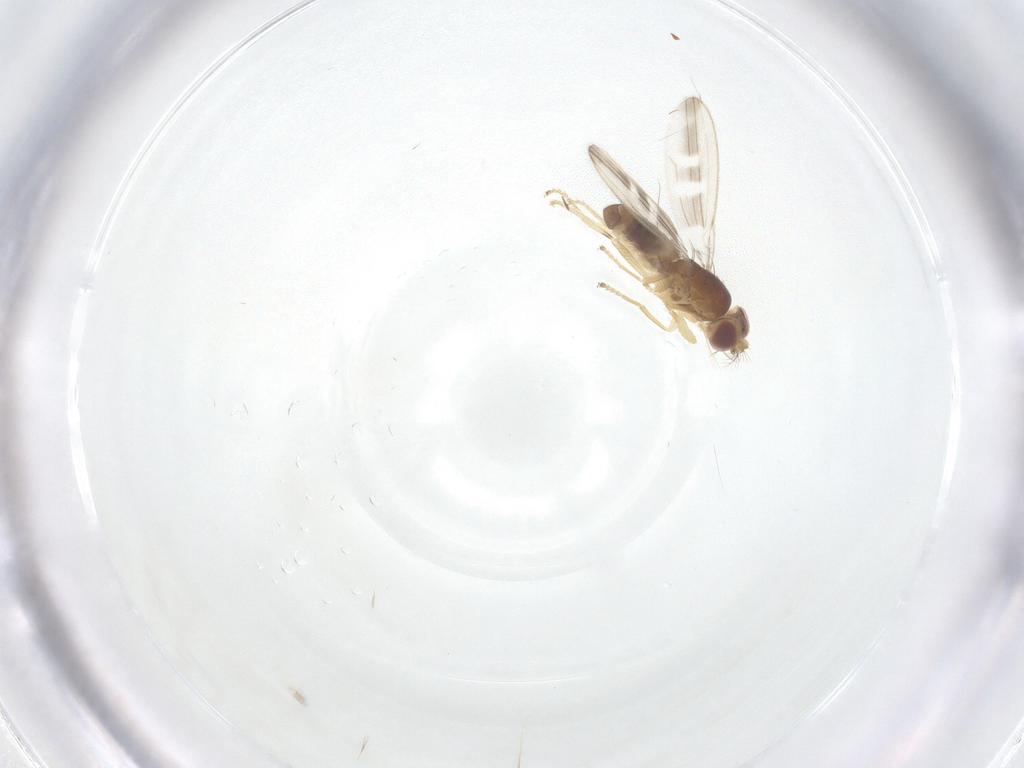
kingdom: Animalia
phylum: Arthropoda
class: Insecta
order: Diptera
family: Periscelididae
